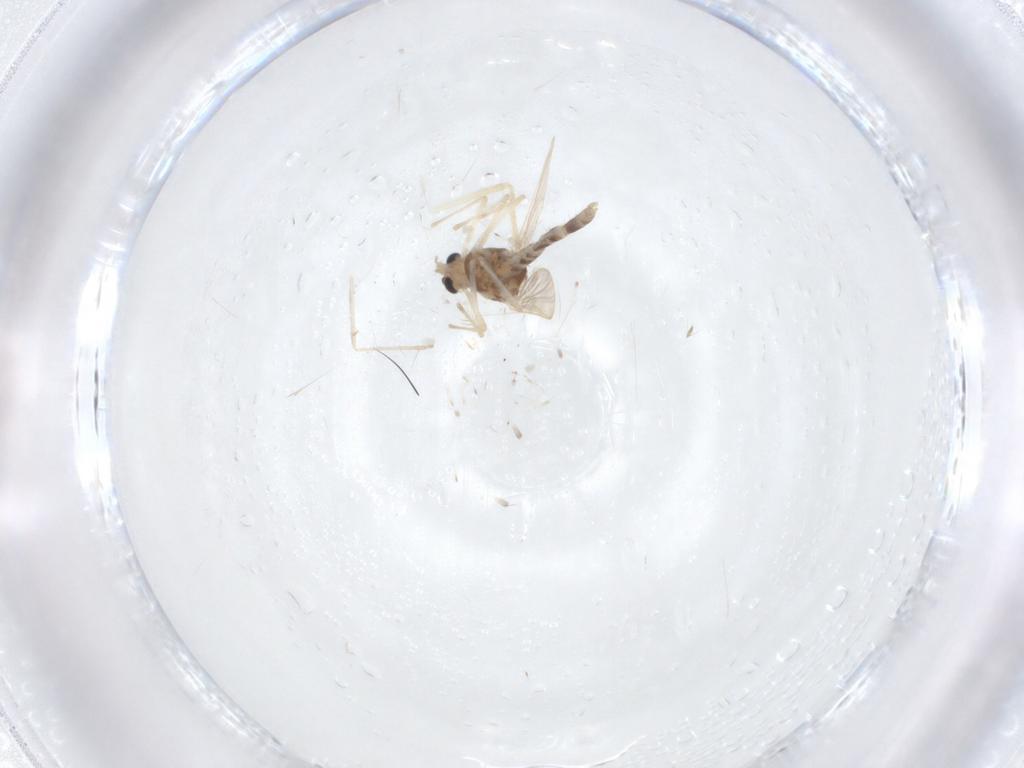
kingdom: Animalia
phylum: Arthropoda
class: Insecta
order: Diptera
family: Chironomidae
